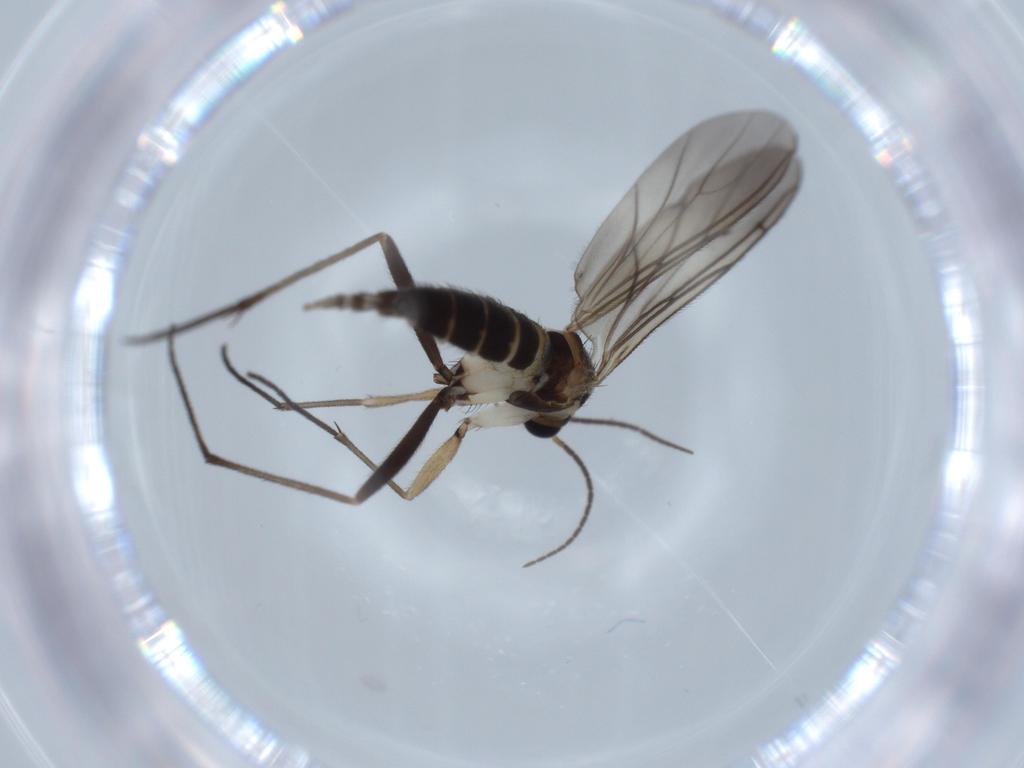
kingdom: Animalia
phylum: Arthropoda
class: Insecta
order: Diptera
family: Sciaridae
